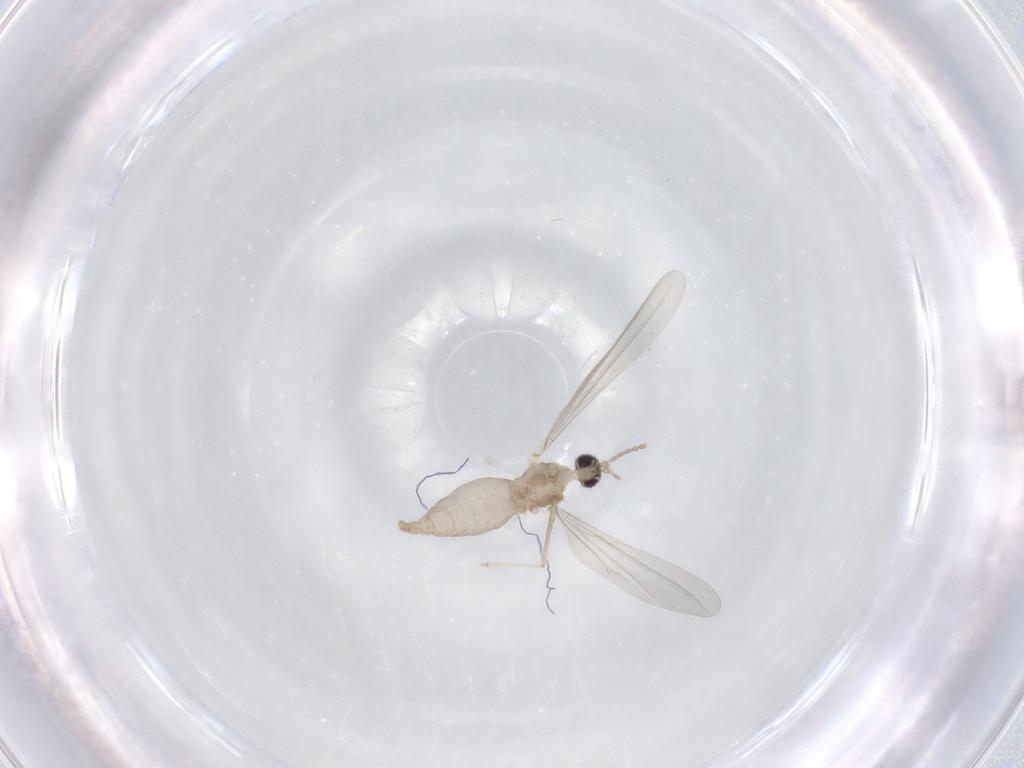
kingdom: Animalia
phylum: Arthropoda
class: Insecta
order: Diptera
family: Cecidomyiidae
